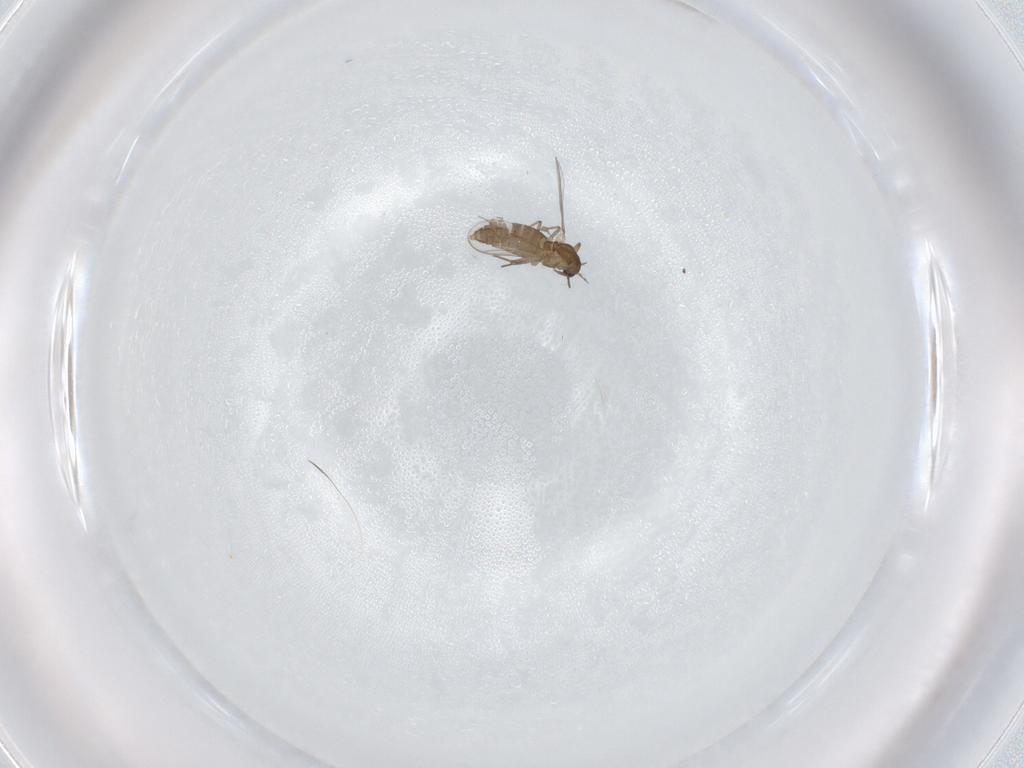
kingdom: Animalia
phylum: Arthropoda
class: Insecta
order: Diptera
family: Chironomidae
